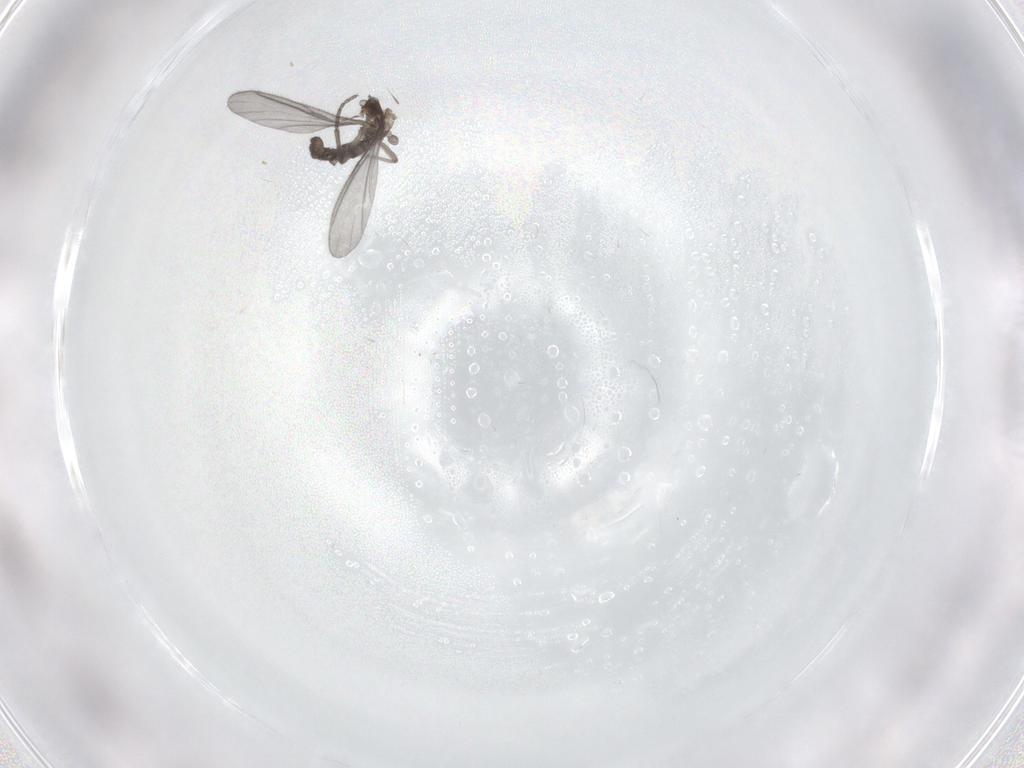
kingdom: Animalia
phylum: Arthropoda
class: Insecta
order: Diptera
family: Sciaridae
